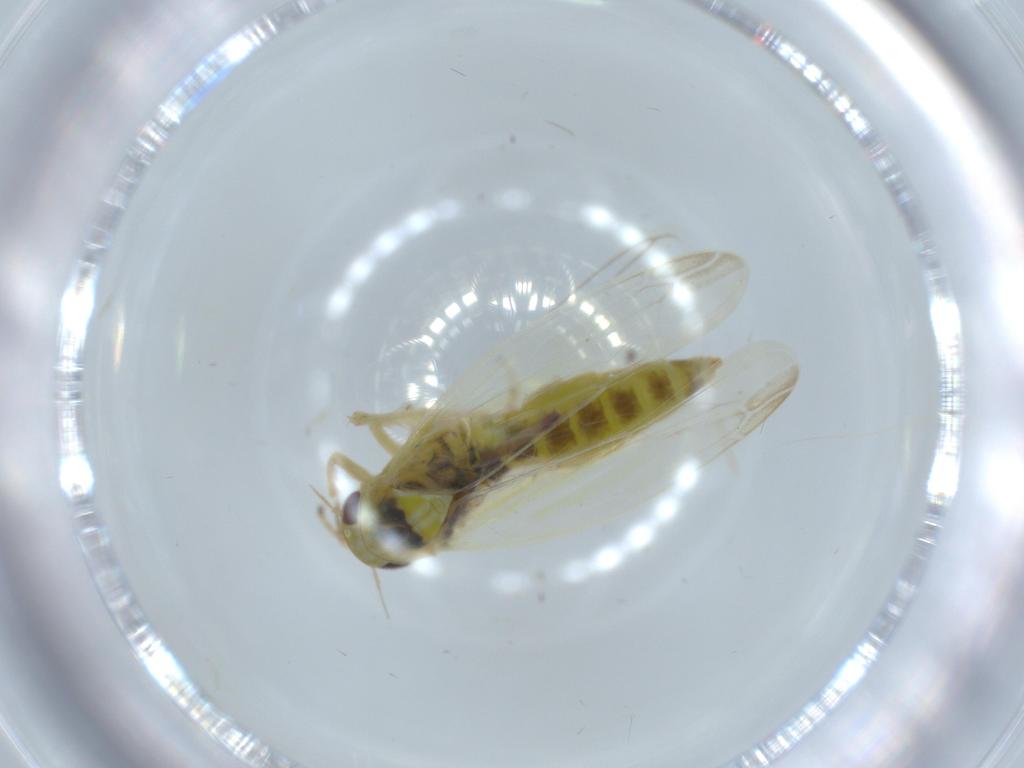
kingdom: Animalia
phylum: Arthropoda
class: Insecta
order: Hemiptera
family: Cicadellidae
